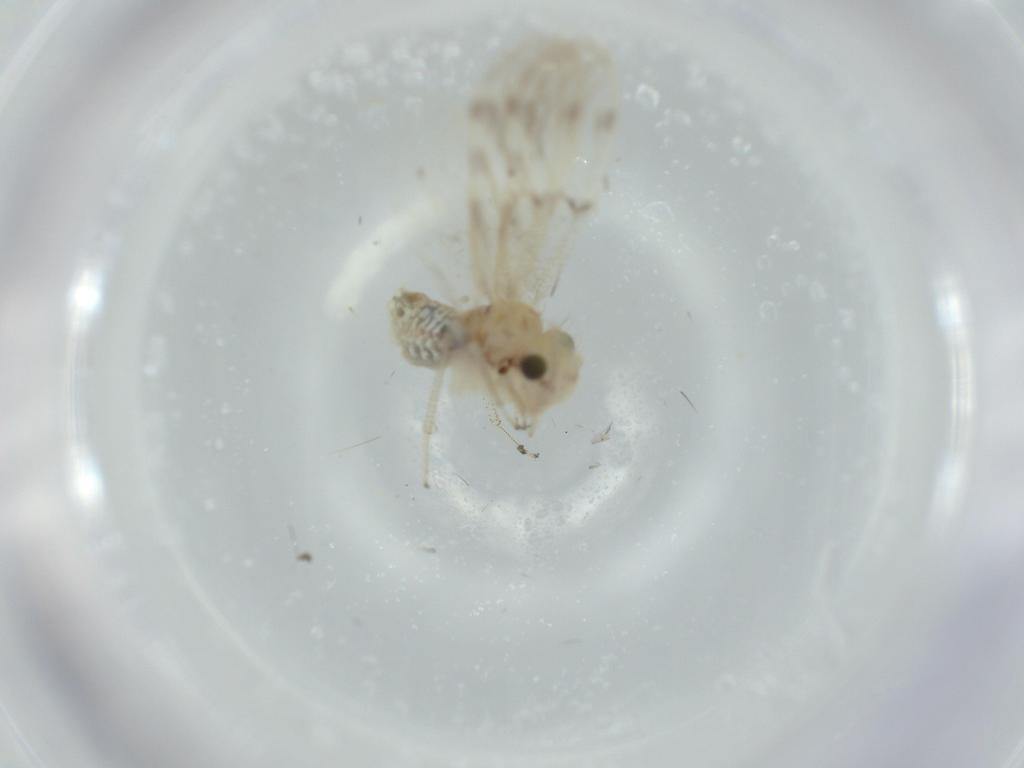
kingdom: Animalia
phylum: Arthropoda
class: Insecta
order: Psocodea
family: Pseudocaeciliidae
